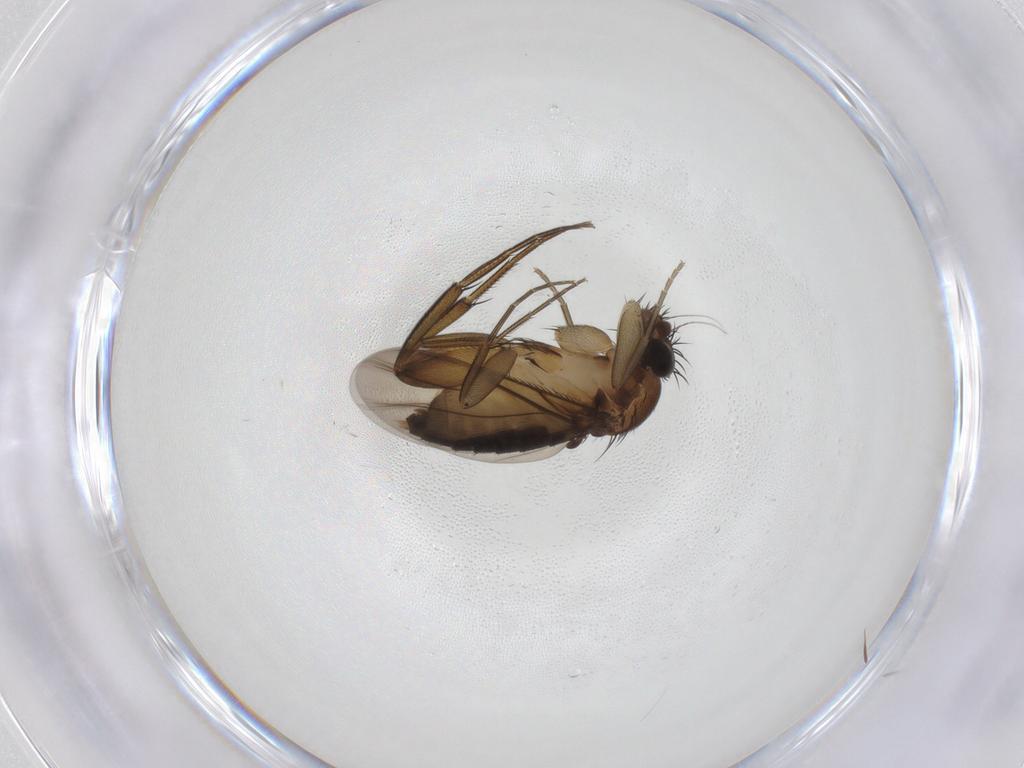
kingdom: Animalia
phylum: Arthropoda
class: Insecta
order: Diptera
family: Phoridae
